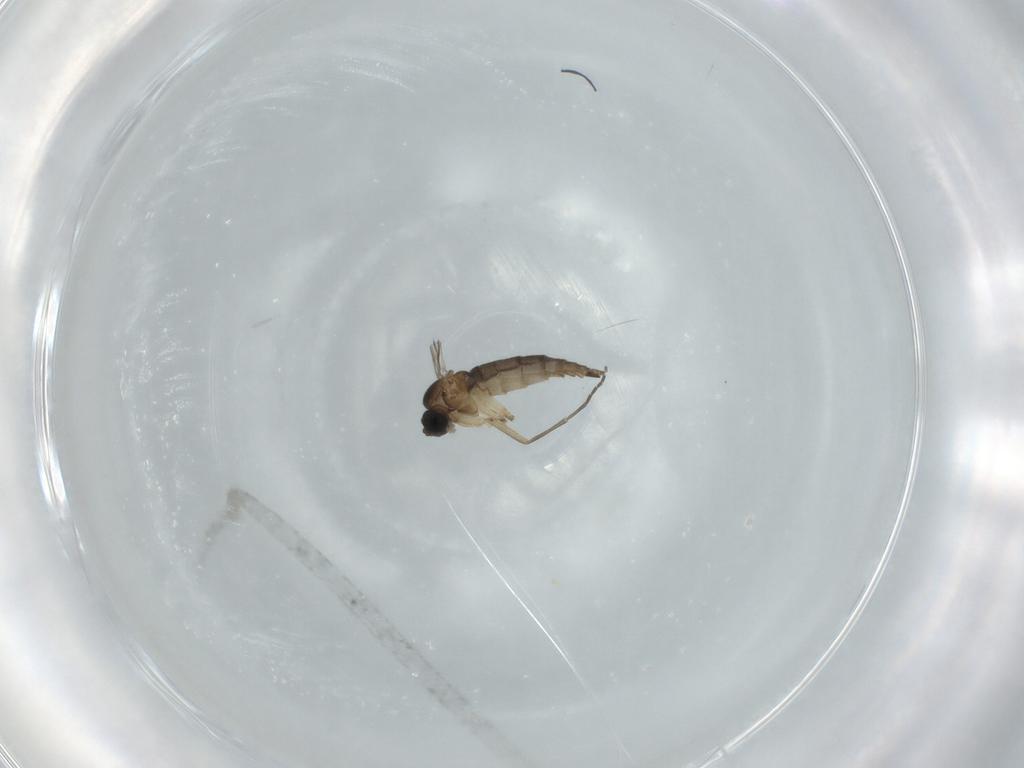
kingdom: Animalia
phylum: Arthropoda
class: Insecta
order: Diptera
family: Sciaridae
